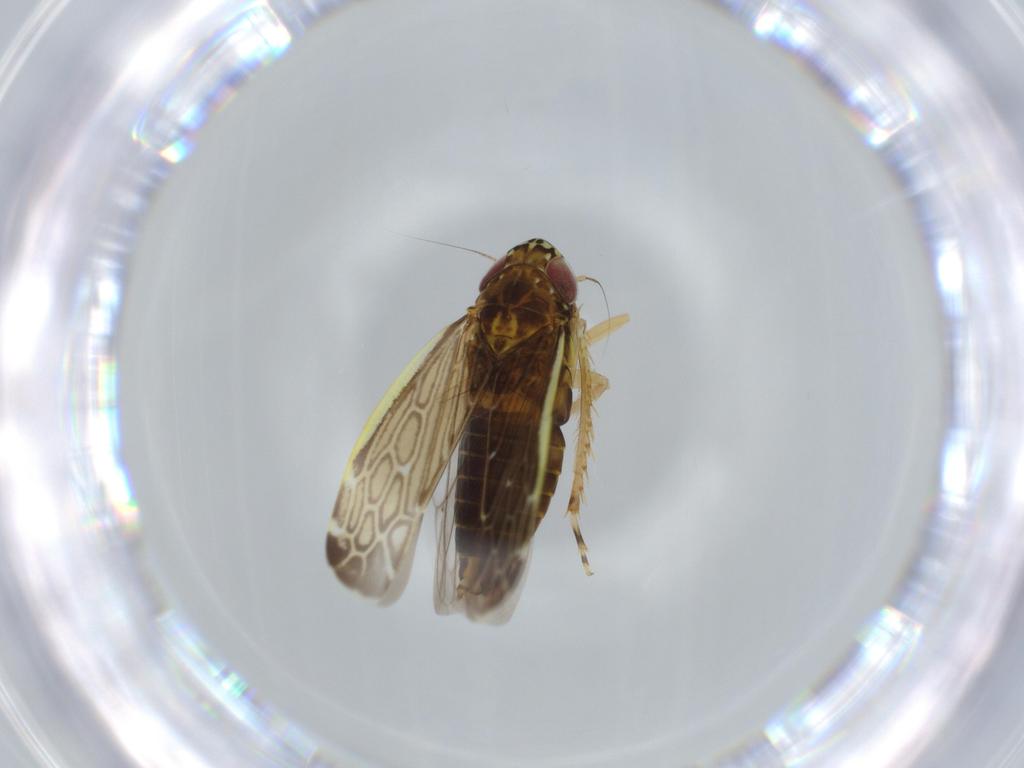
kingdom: Animalia
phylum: Arthropoda
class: Insecta
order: Hemiptera
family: Cicadellidae
